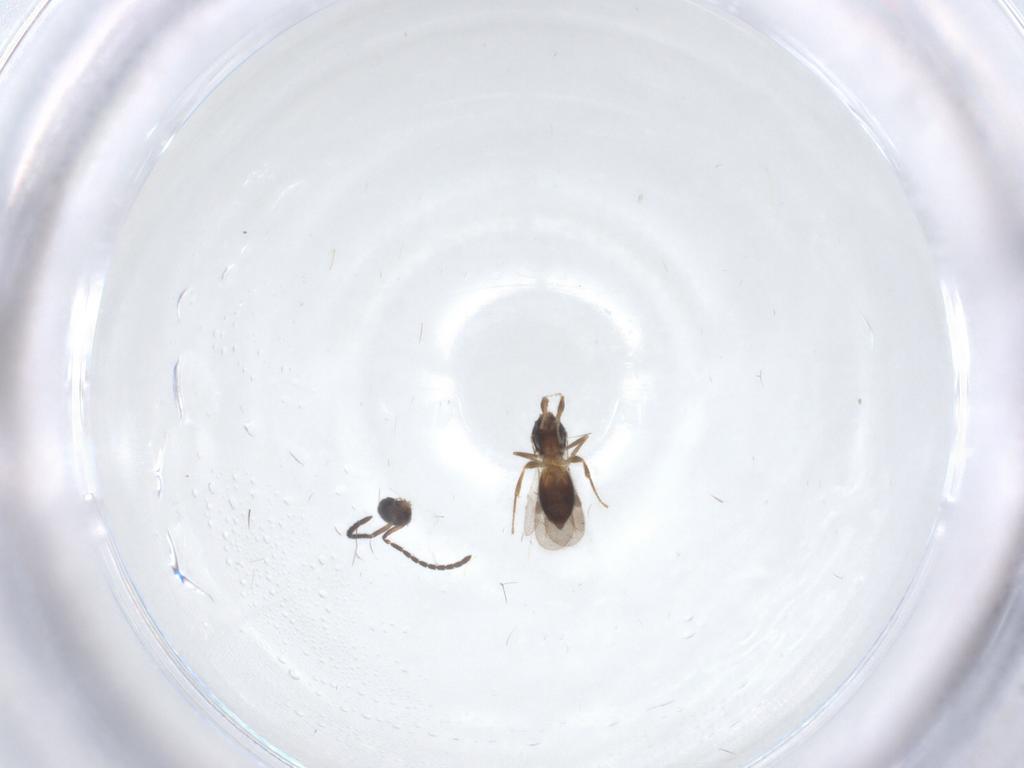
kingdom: Animalia
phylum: Arthropoda
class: Insecta
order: Hymenoptera
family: Megaspilidae
